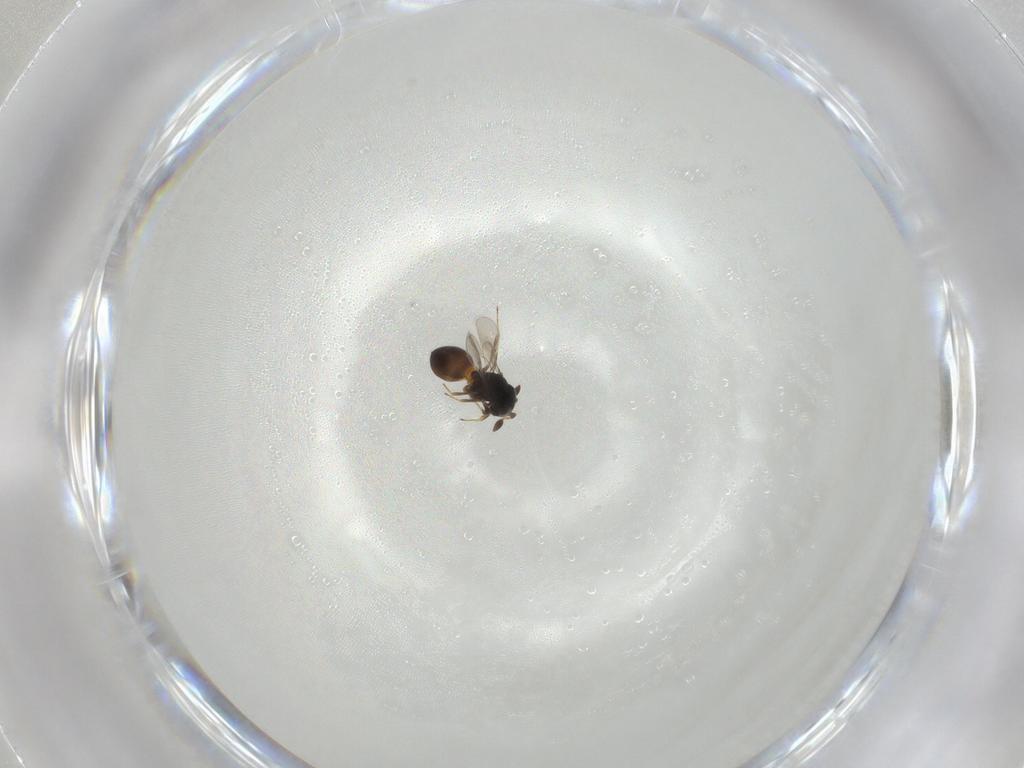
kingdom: Animalia
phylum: Arthropoda
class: Insecta
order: Hymenoptera
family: Scelionidae
